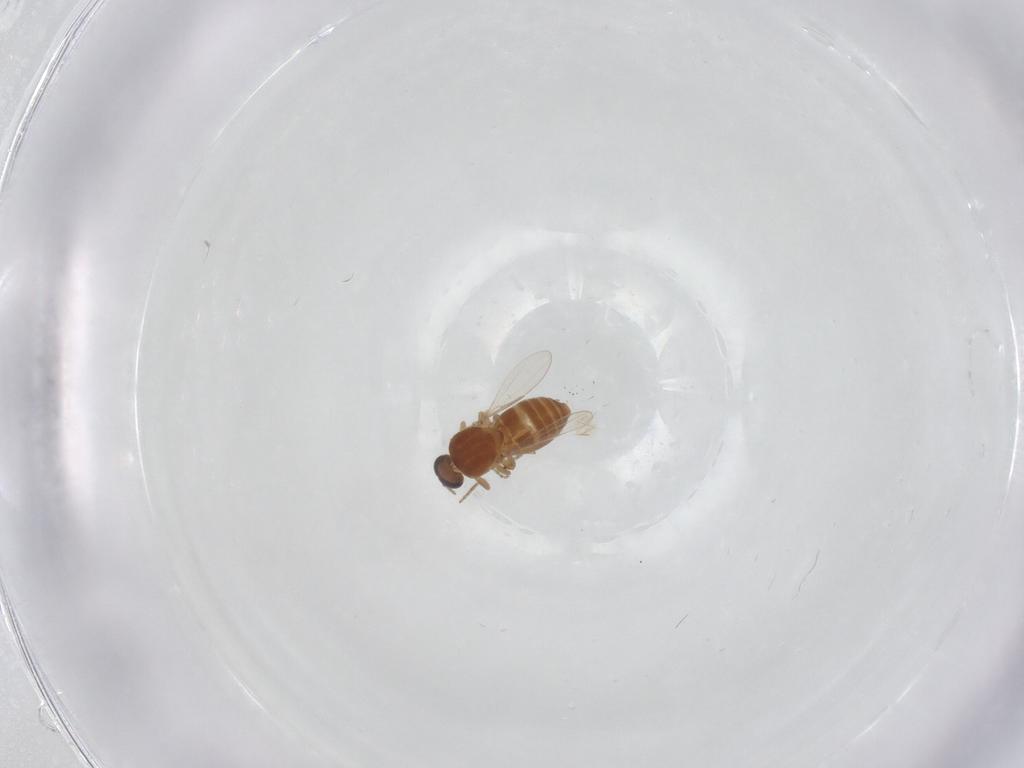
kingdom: Animalia
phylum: Arthropoda
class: Insecta
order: Diptera
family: Ceratopogonidae
